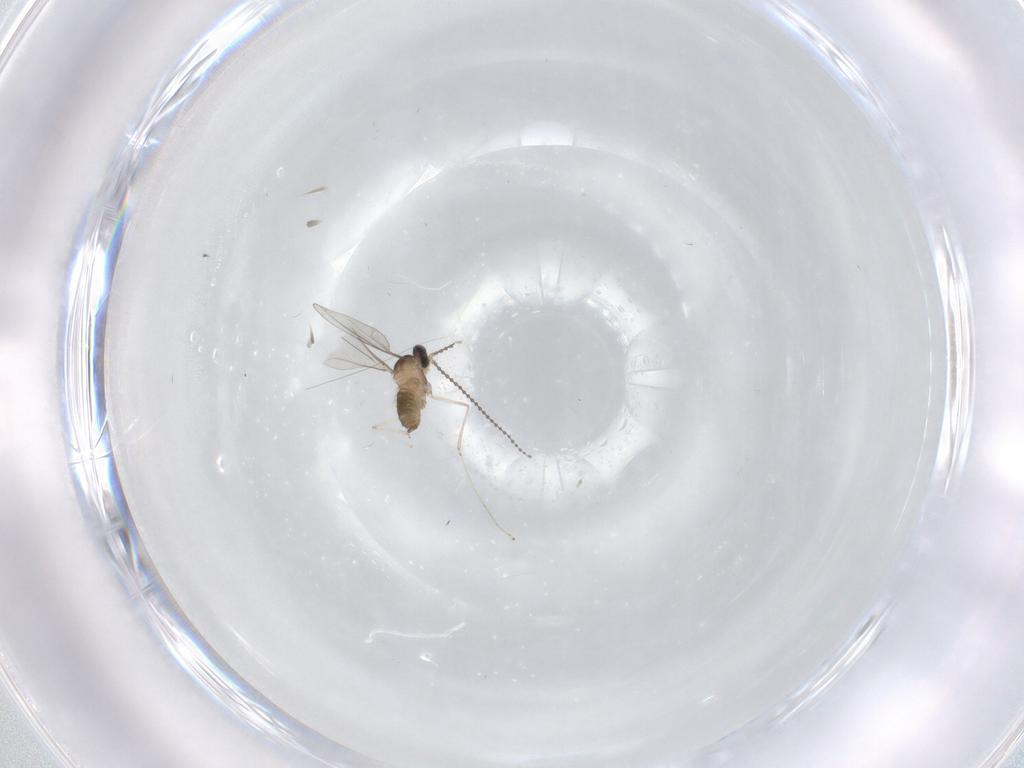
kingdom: Animalia
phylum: Arthropoda
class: Insecta
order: Diptera
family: Cecidomyiidae
